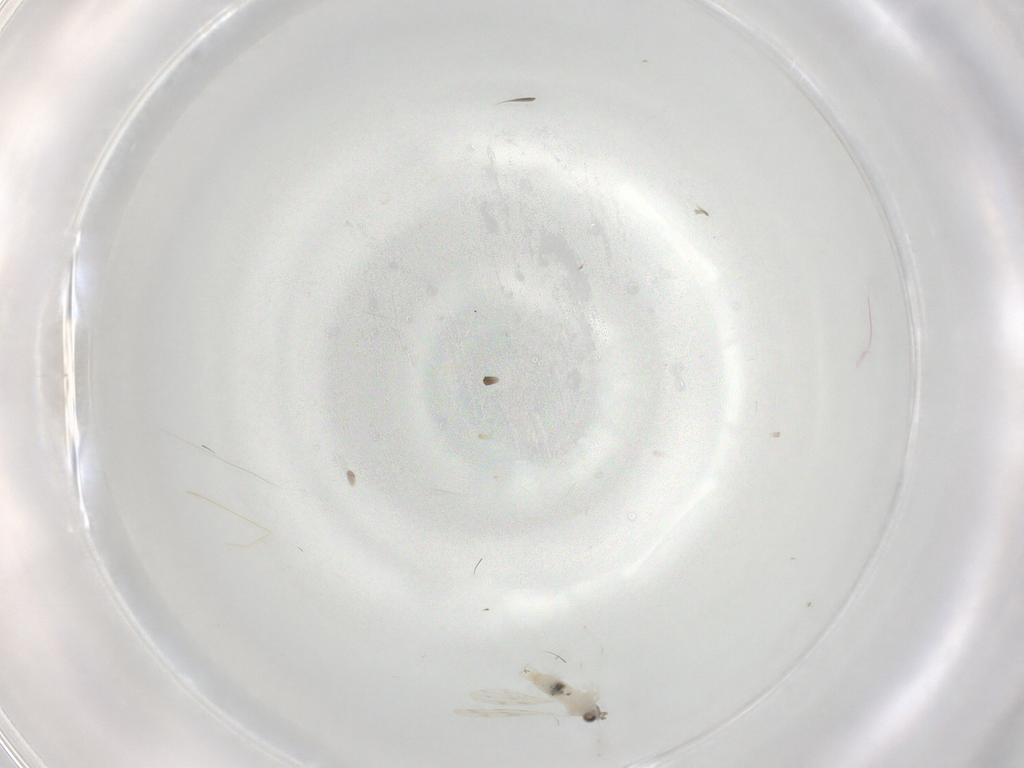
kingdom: Animalia
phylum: Arthropoda
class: Insecta
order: Diptera
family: Cecidomyiidae
